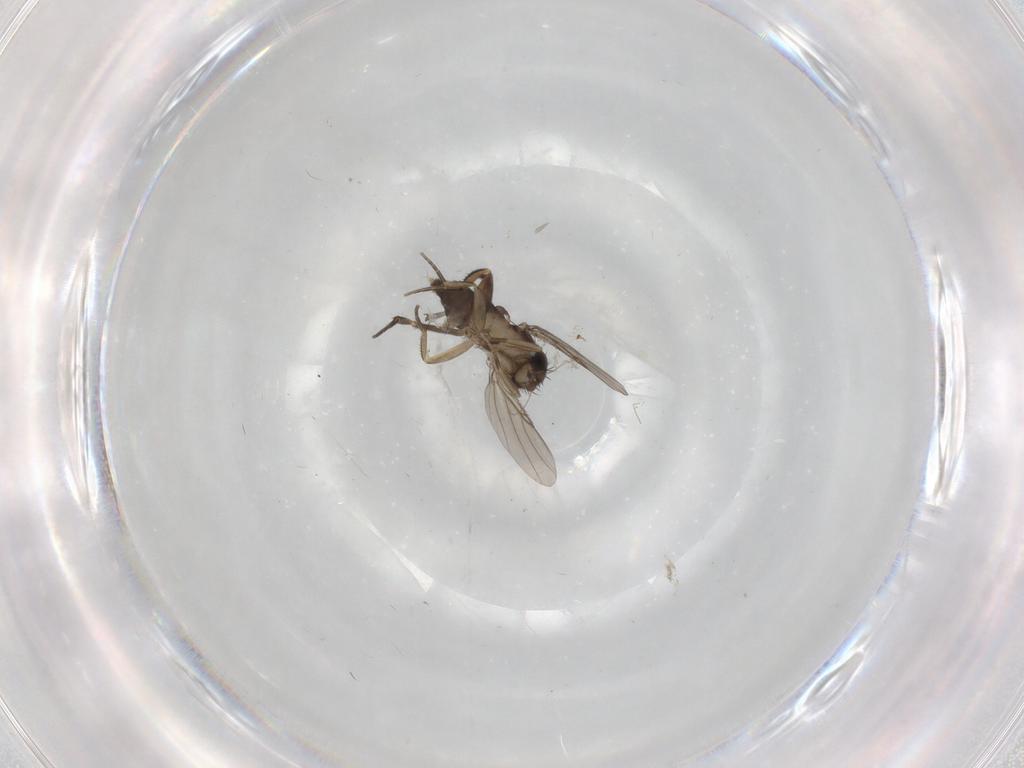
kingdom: Animalia
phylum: Arthropoda
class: Insecta
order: Diptera
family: Phoridae
